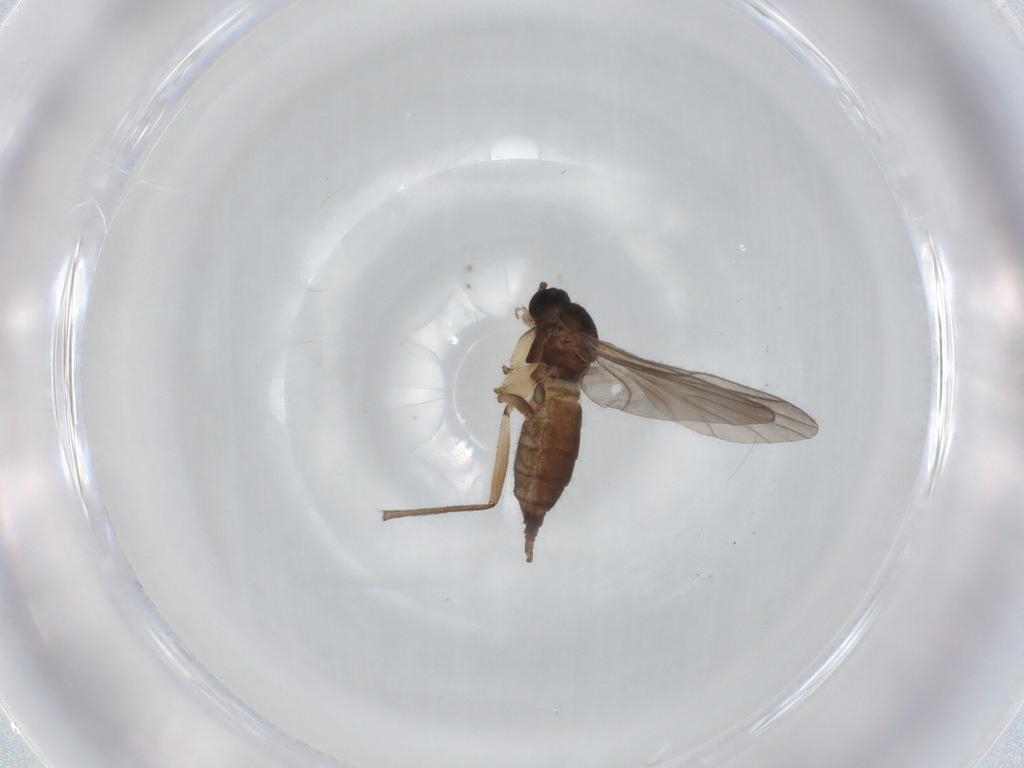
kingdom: Animalia
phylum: Arthropoda
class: Insecta
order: Diptera
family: Sciaridae
